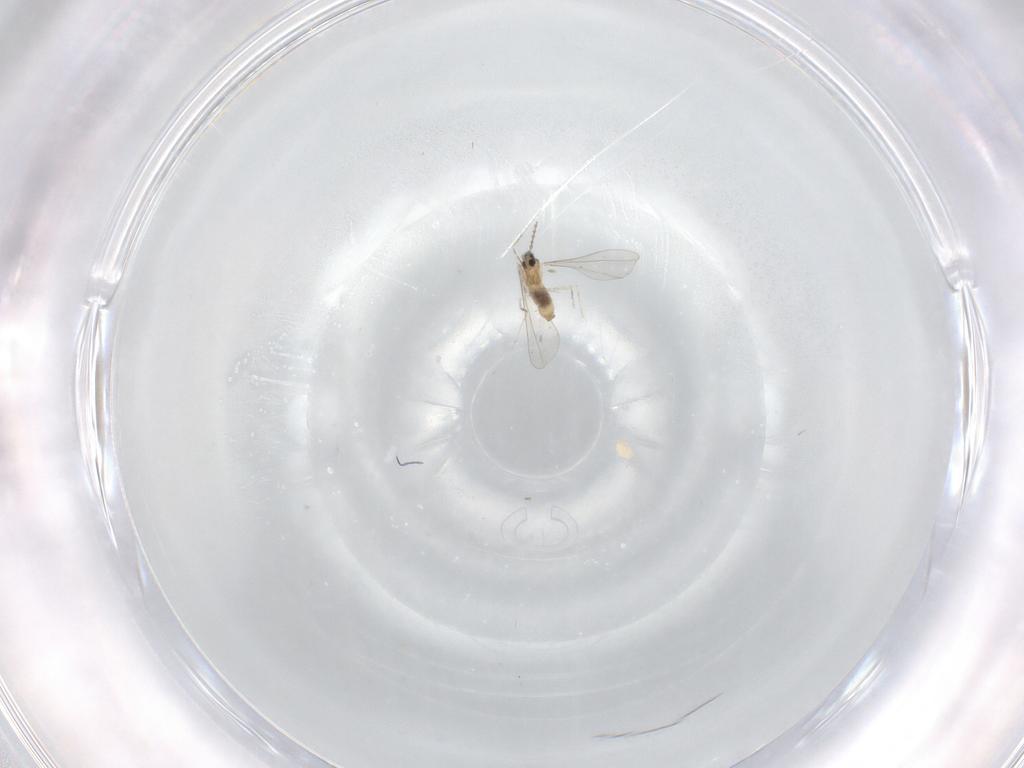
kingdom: Animalia
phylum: Arthropoda
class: Insecta
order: Diptera
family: Cecidomyiidae
